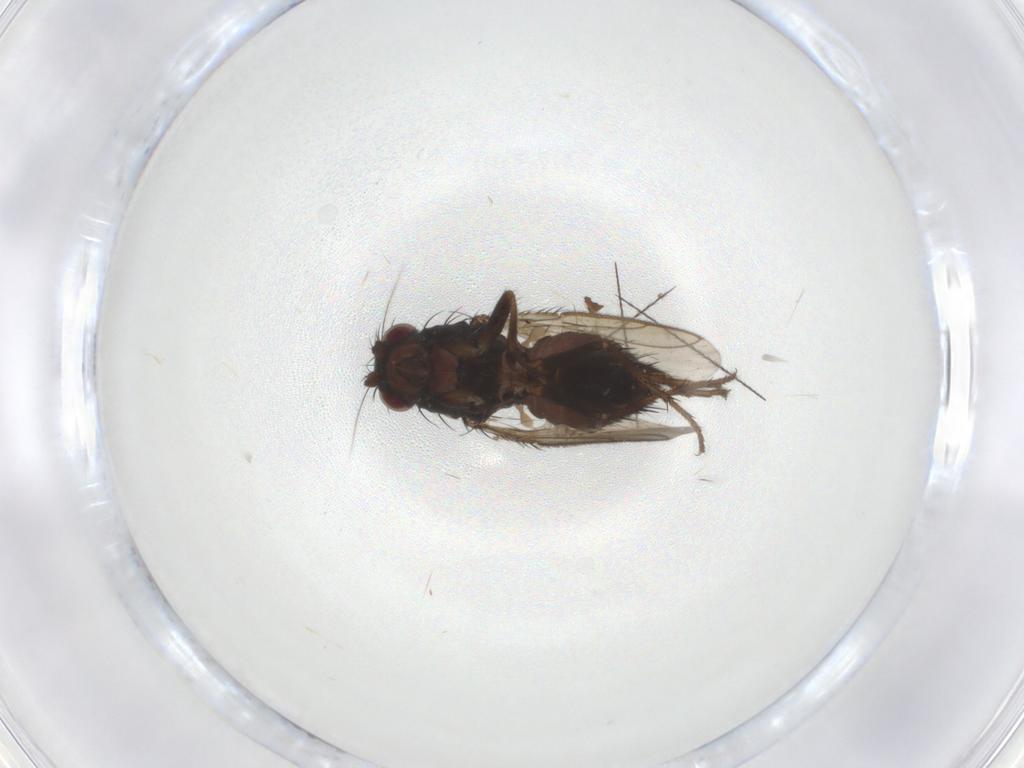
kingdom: Animalia
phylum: Arthropoda
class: Insecta
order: Diptera
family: Sphaeroceridae
